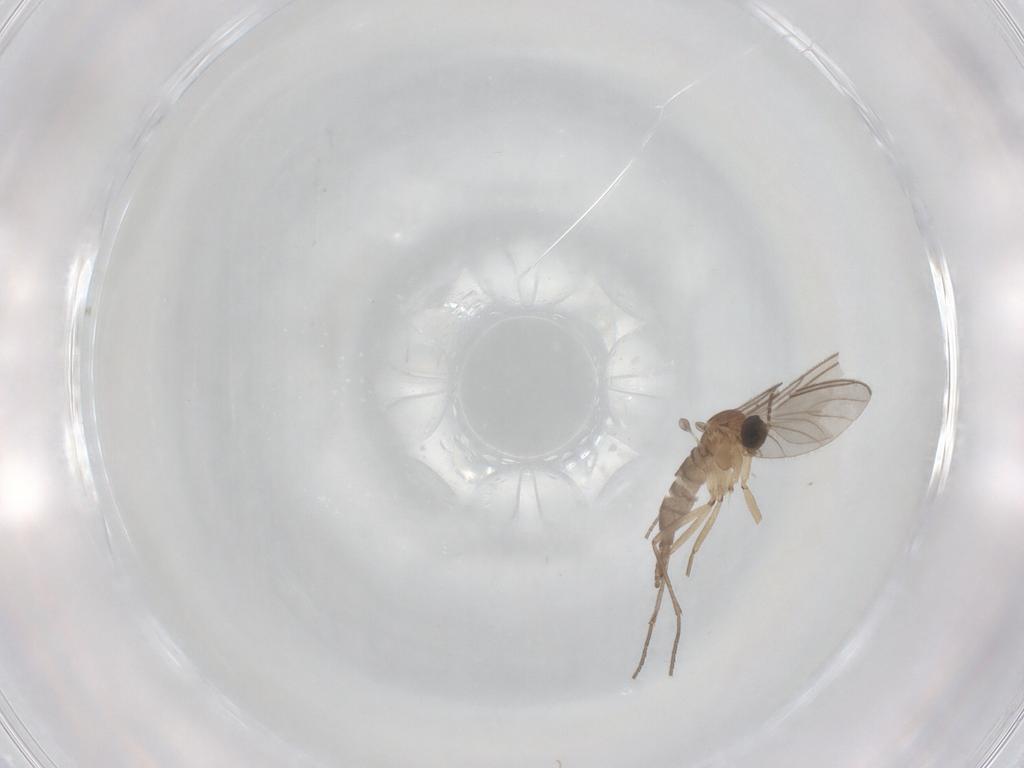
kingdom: Animalia
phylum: Arthropoda
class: Insecta
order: Diptera
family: Sciaridae
